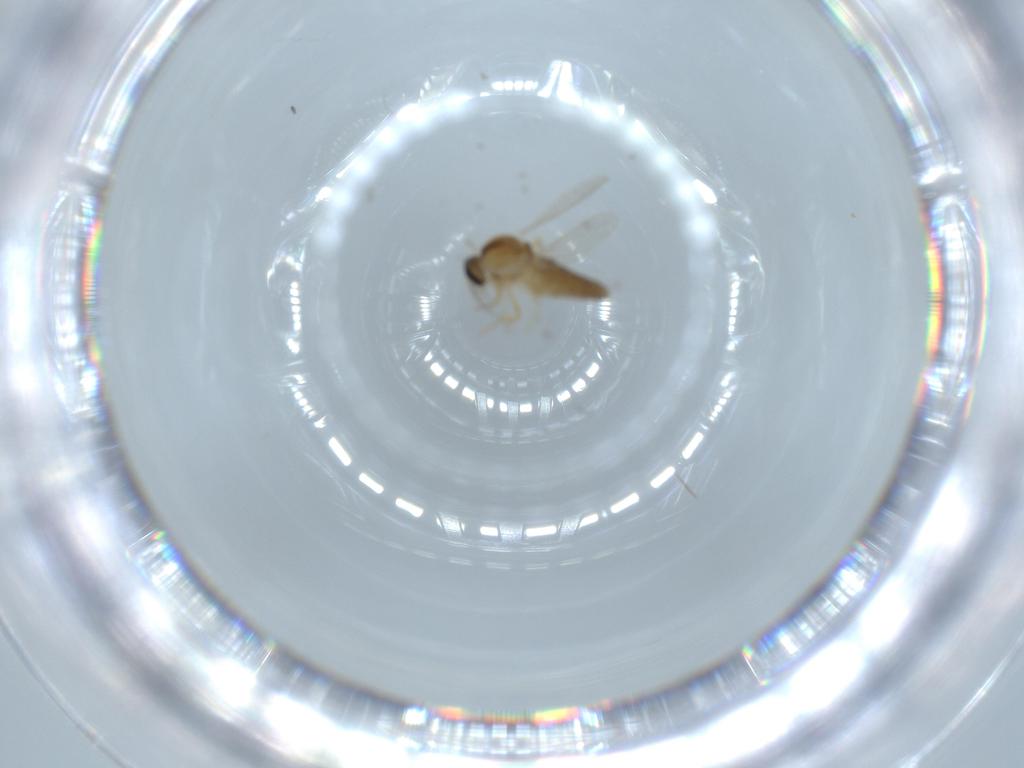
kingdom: Animalia
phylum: Arthropoda
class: Insecta
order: Diptera
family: Ceratopogonidae
